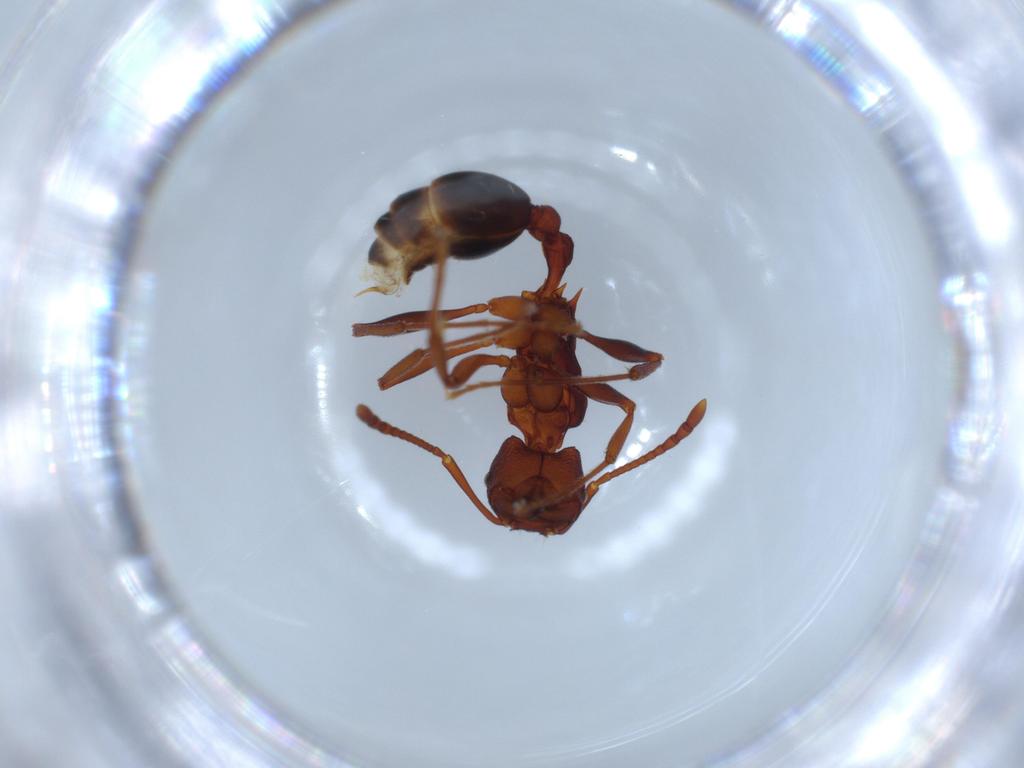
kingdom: Animalia
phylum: Arthropoda
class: Insecta
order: Hymenoptera
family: Formicidae
